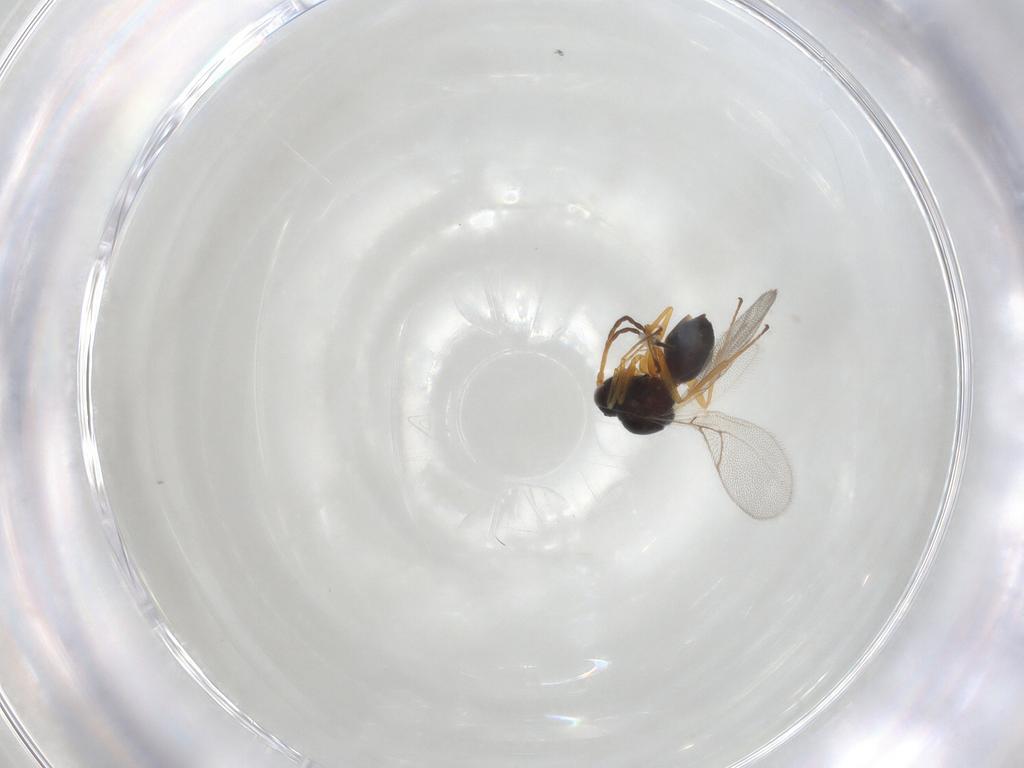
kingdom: Animalia
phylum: Arthropoda
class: Insecta
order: Hymenoptera
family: Figitidae
